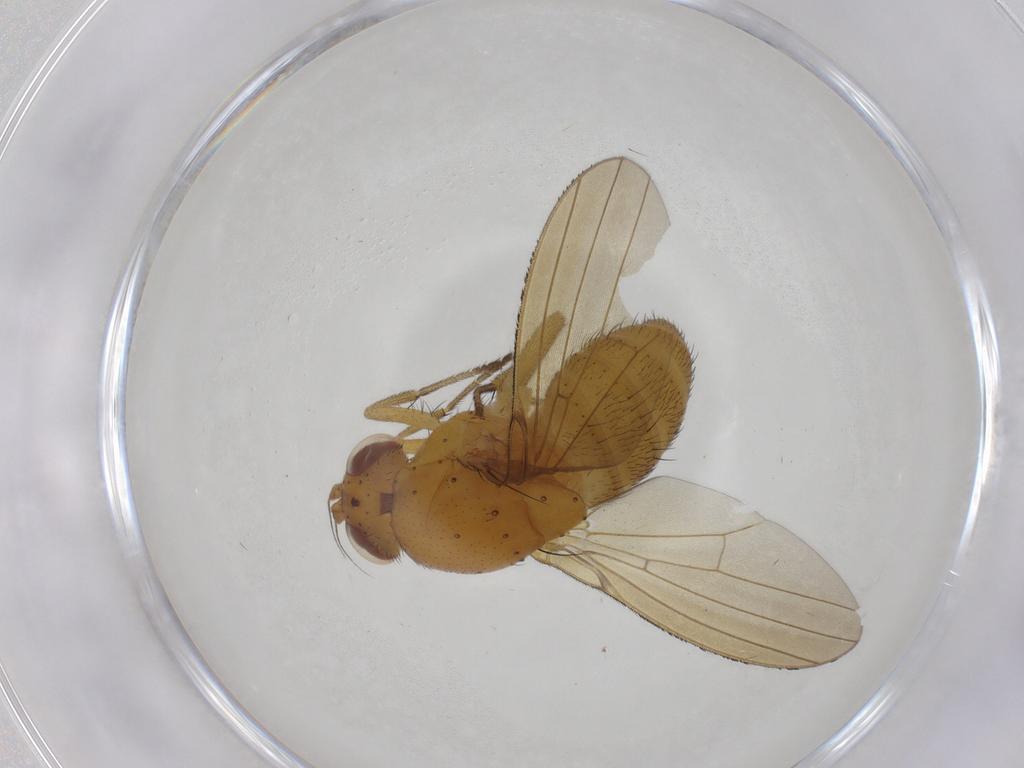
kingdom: Animalia
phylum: Arthropoda
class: Insecta
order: Diptera
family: Lauxaniidae
